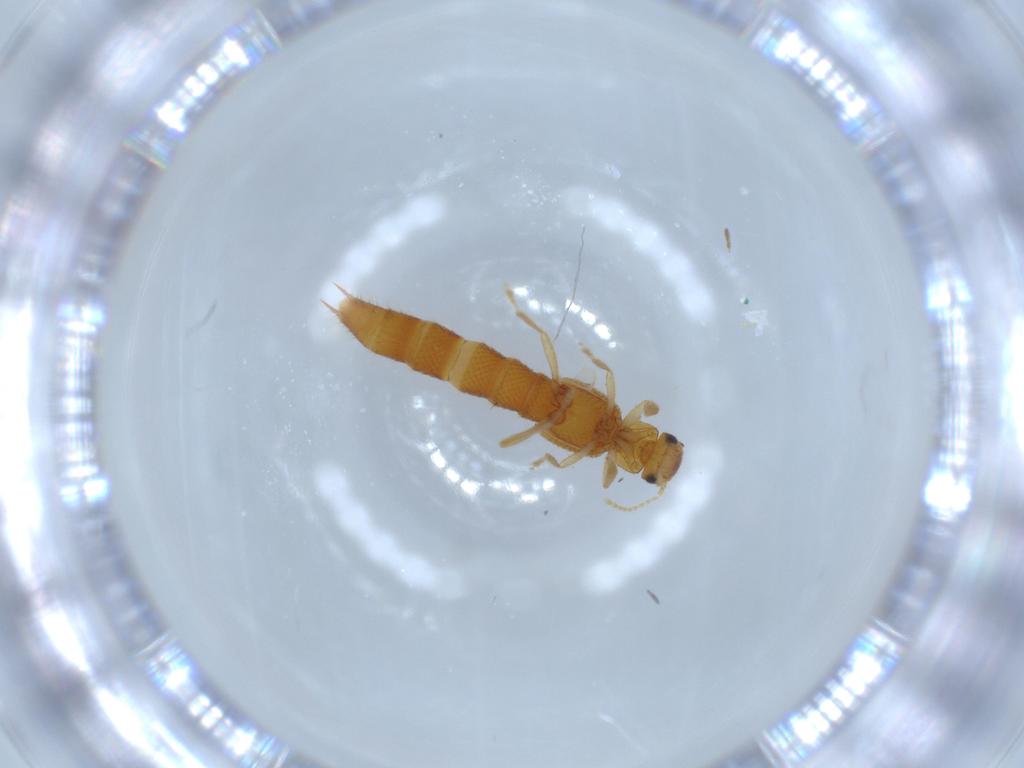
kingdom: Animalia
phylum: Arthropoda
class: Insecta
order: Coleoptera
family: Staphylinidae
